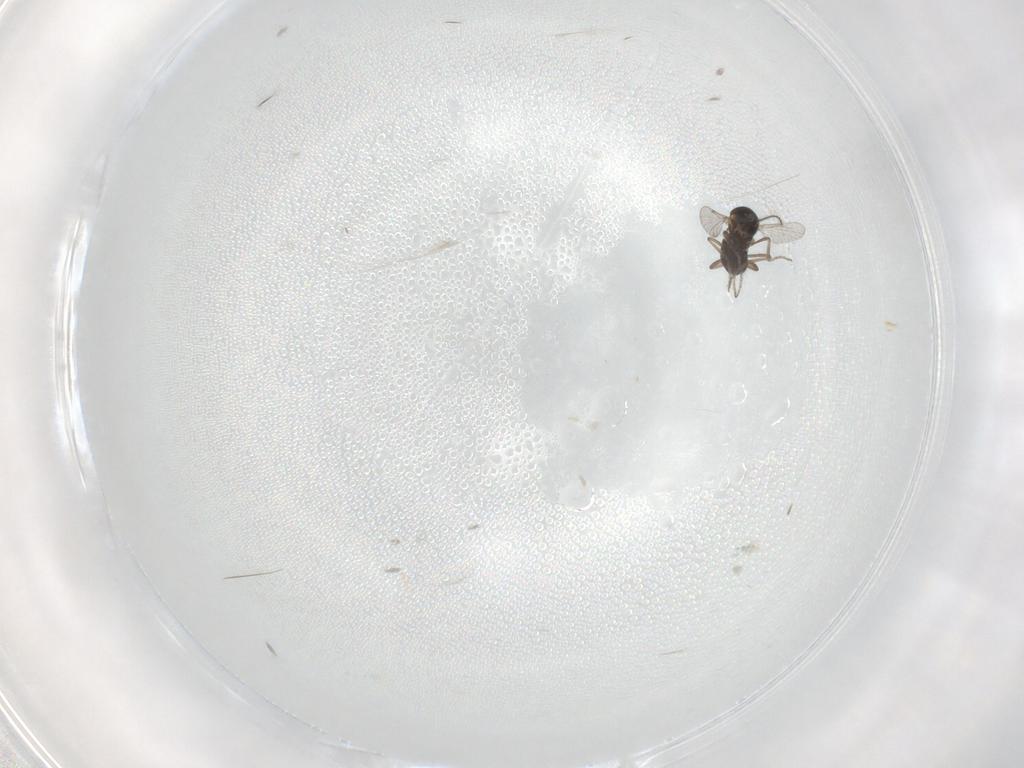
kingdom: Animalia
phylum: Arthropoda
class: Insecta
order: Diptera
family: Ceratopogonidae
